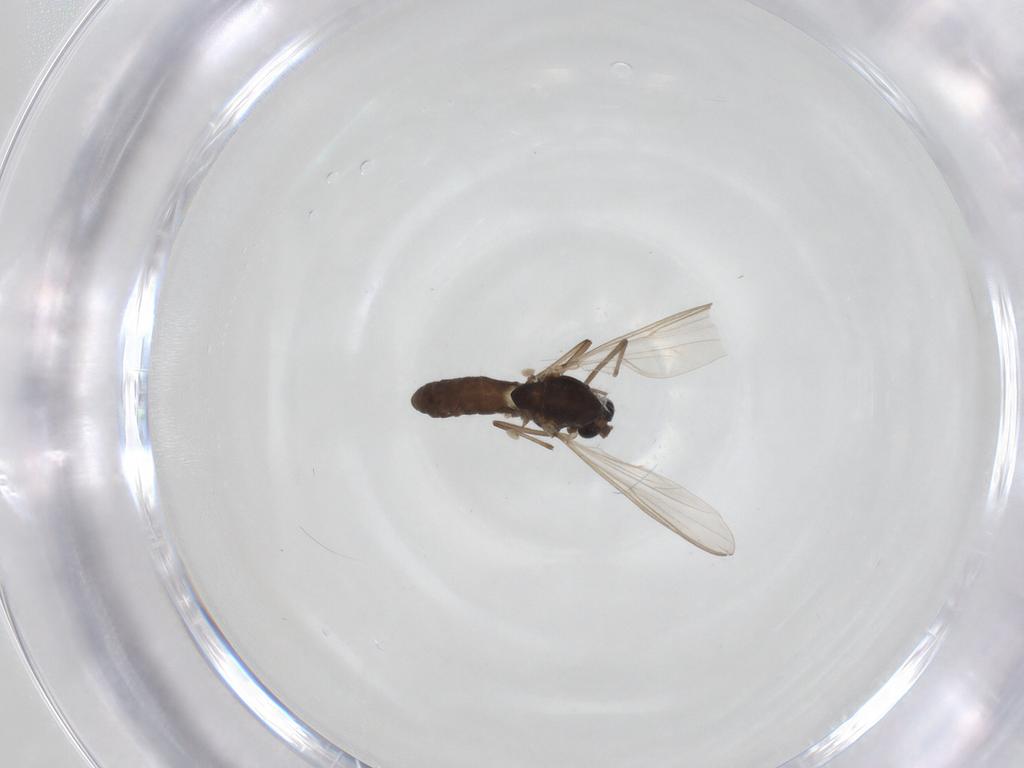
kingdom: Animalia
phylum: Arthropoda
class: Insecta
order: Diptera
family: Chironomidae
